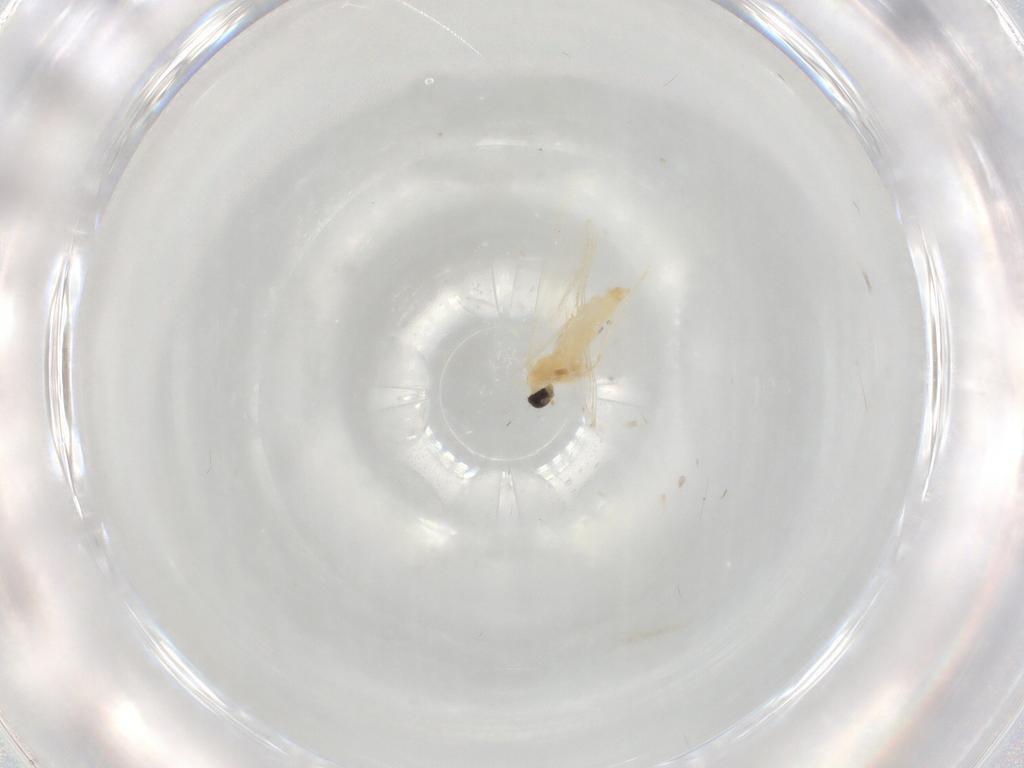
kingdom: Animalia
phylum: Arthropoda
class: Insecta
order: Diptera
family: Cecidomyiidae
